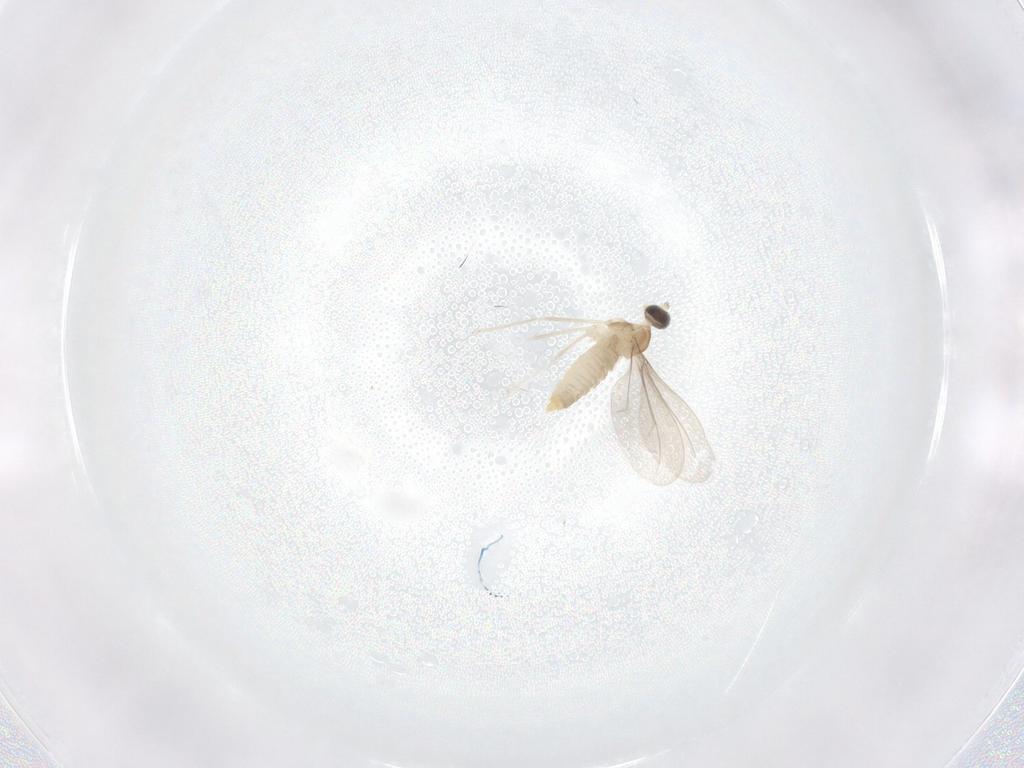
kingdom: Animalia
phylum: Arthropoda
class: Insecta
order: Diptera
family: Cecidomyiidae
